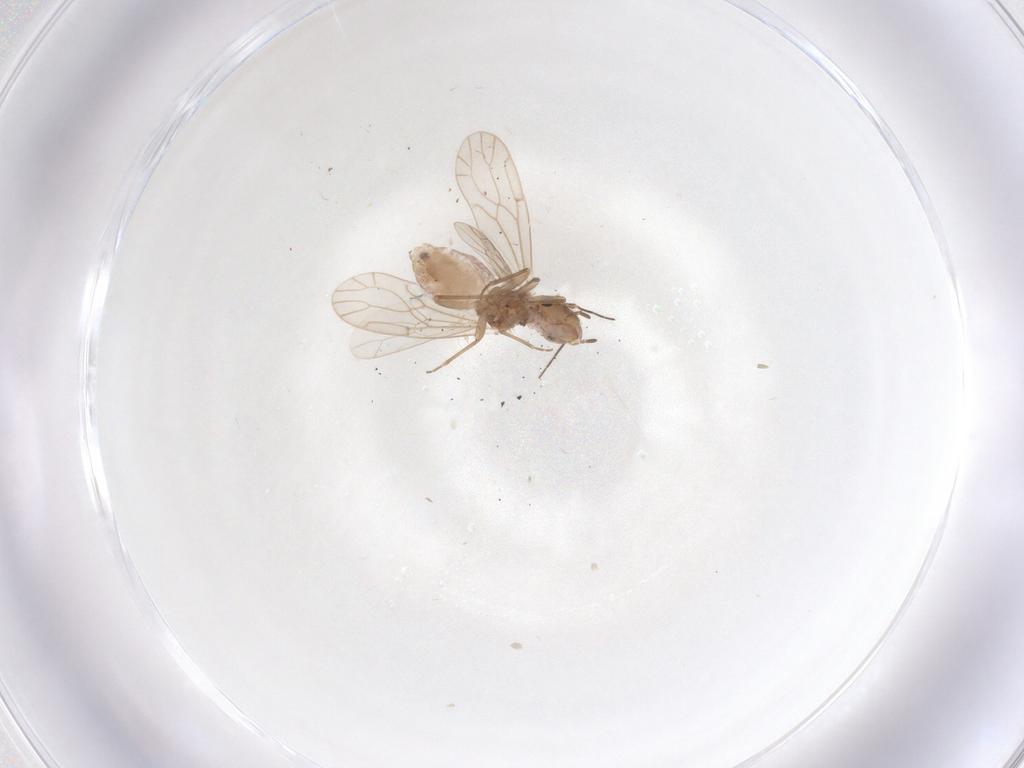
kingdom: Animalia
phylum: Arthropoda
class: Insecta
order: Psocodea
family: Ectopsocidae
